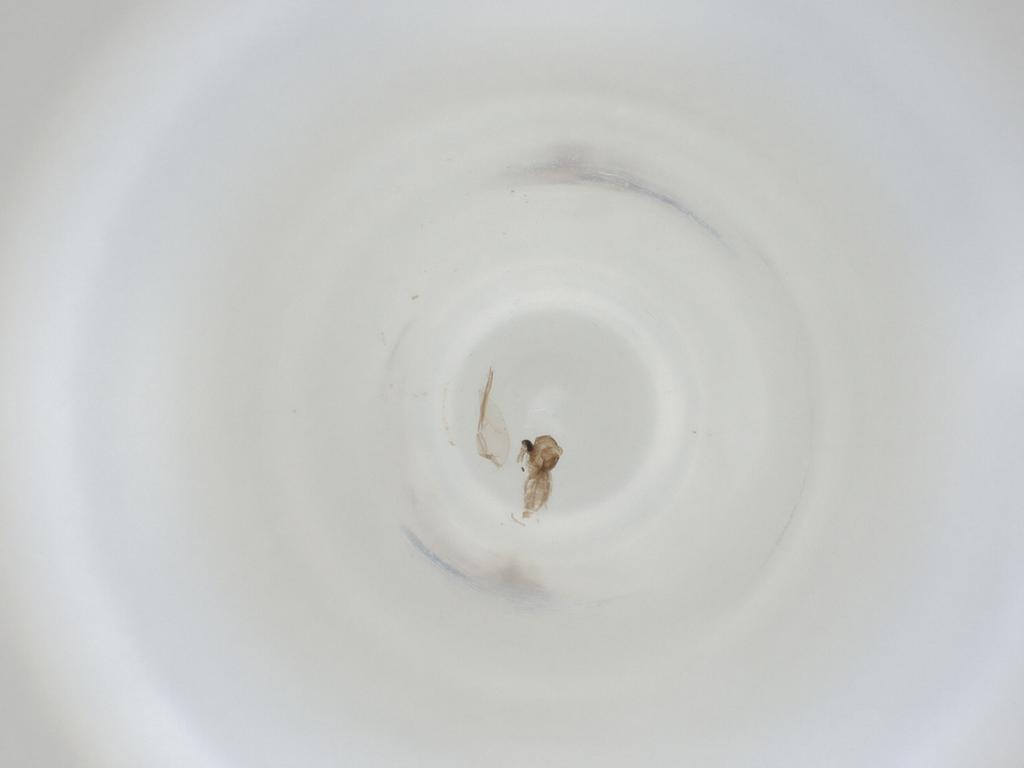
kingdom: Animalia
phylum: Arthropoda
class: Insecta
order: Diptera
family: Cecidomyiidae
